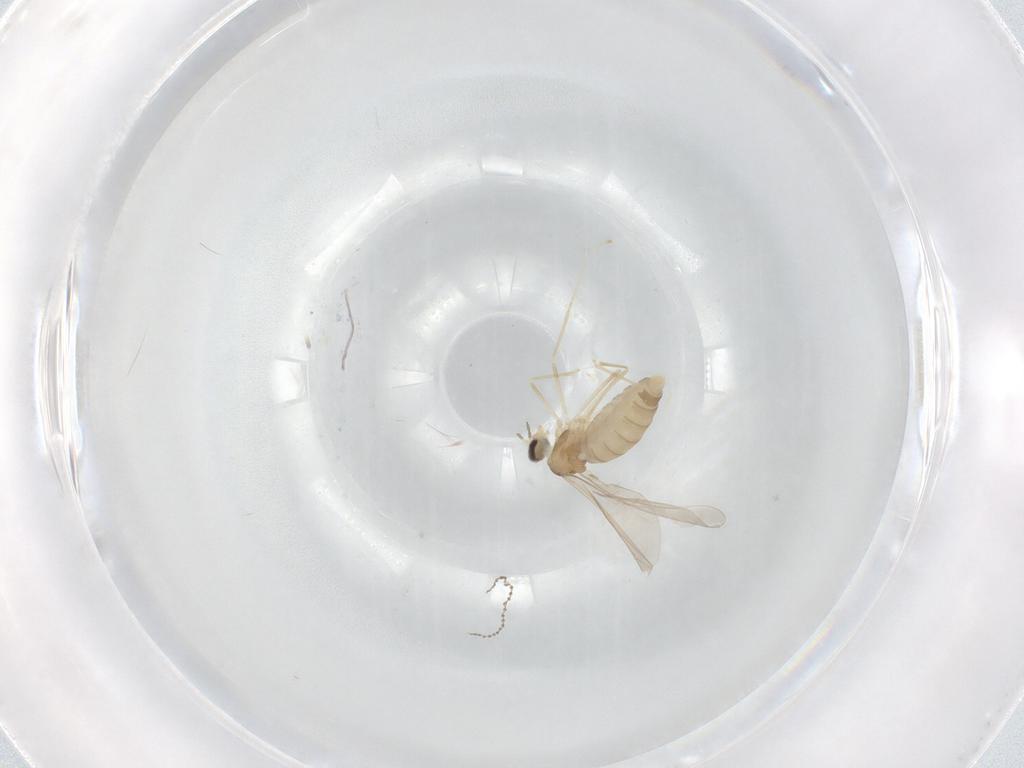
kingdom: Animalia
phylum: Arthropoda
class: Insecta
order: Diptera
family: Cecidomyiidae
